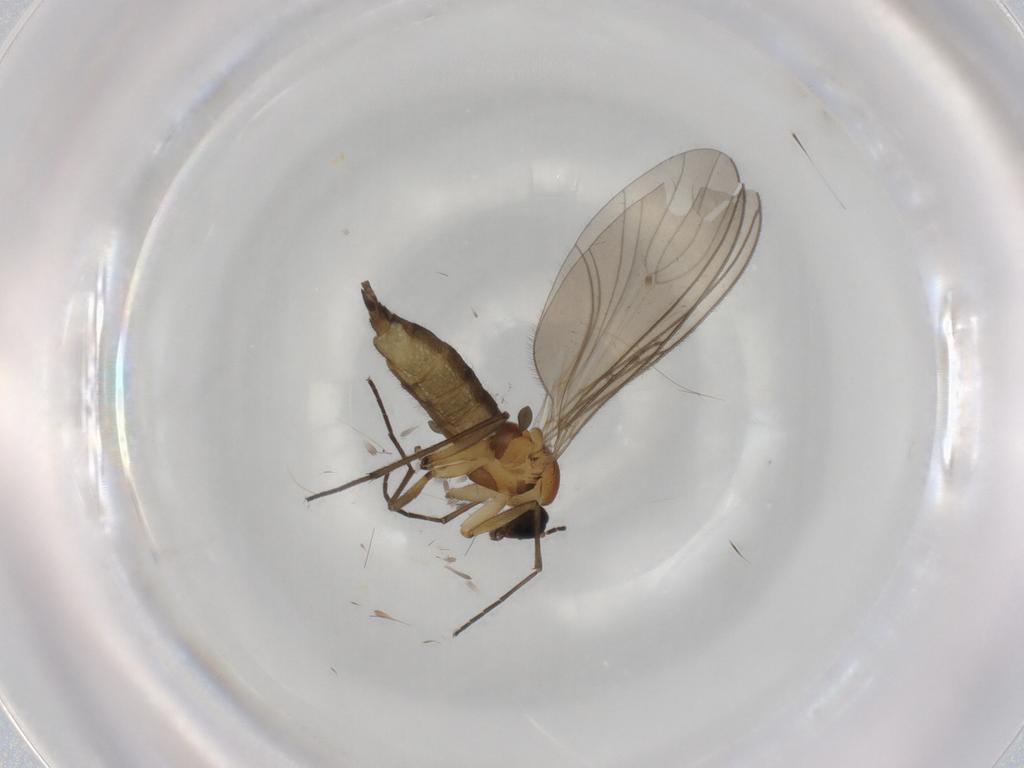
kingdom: Animalia
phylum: Arthropoda
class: Insecta
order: Diptera
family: Sciaridae
